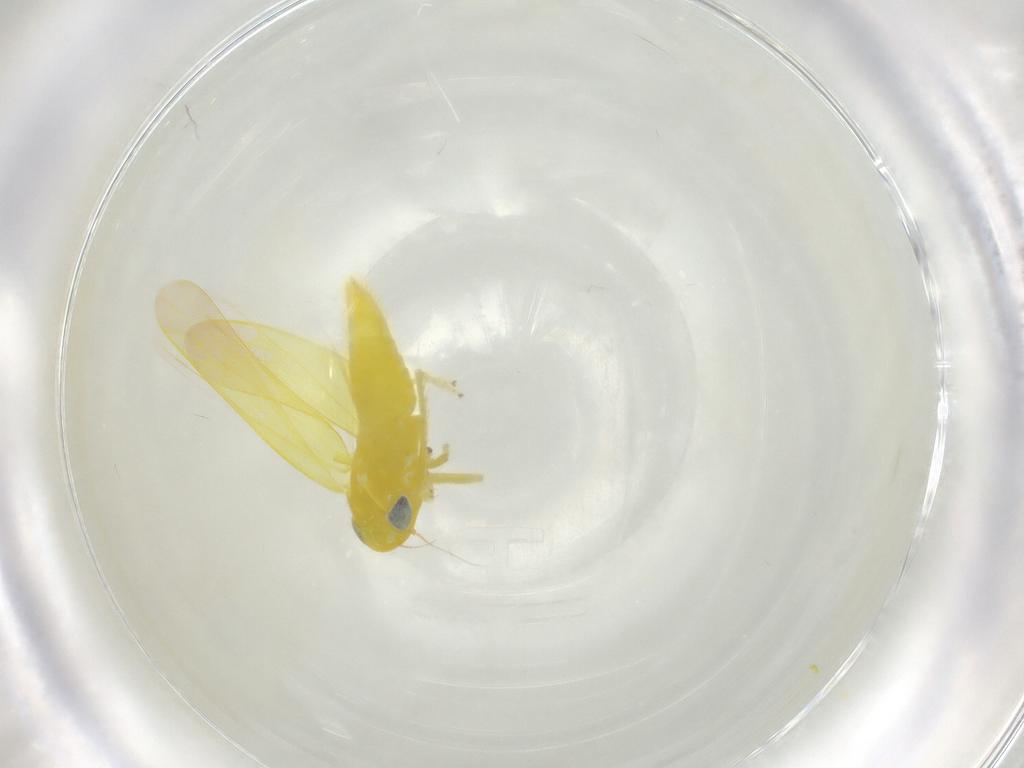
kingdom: Animalia
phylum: Arthropoda
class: Insecta
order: Hemiptera
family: Cicadellidae
